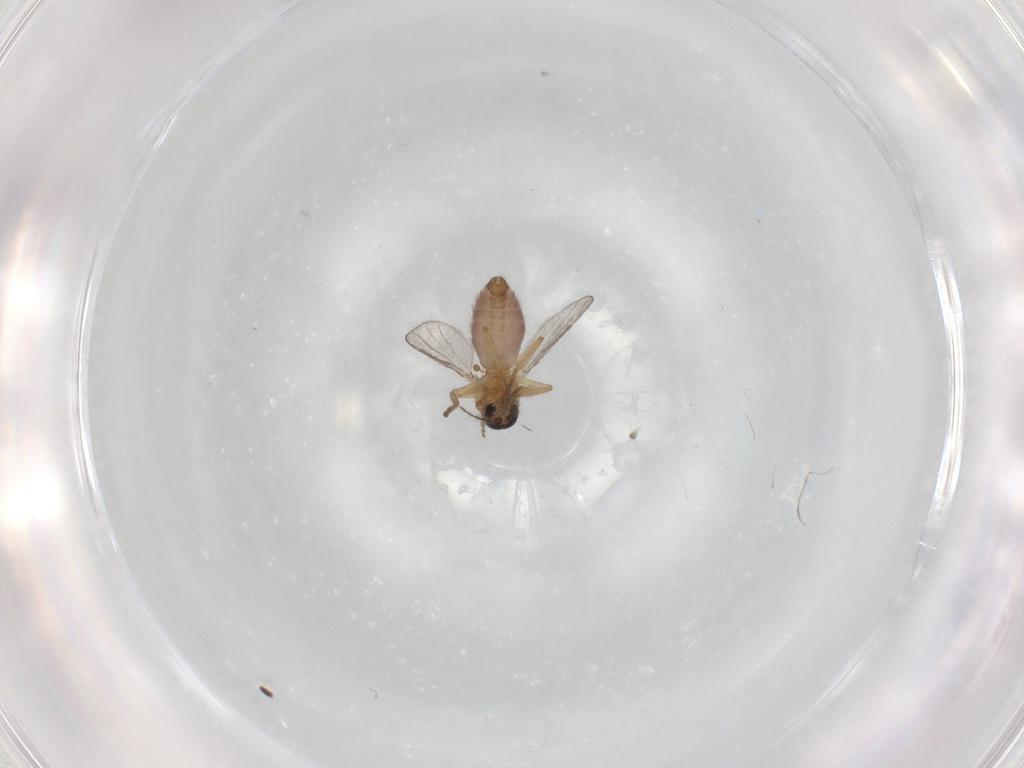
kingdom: Animalia
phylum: Arthropoda
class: Insecta
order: Diptera
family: Ceratopogonidae
